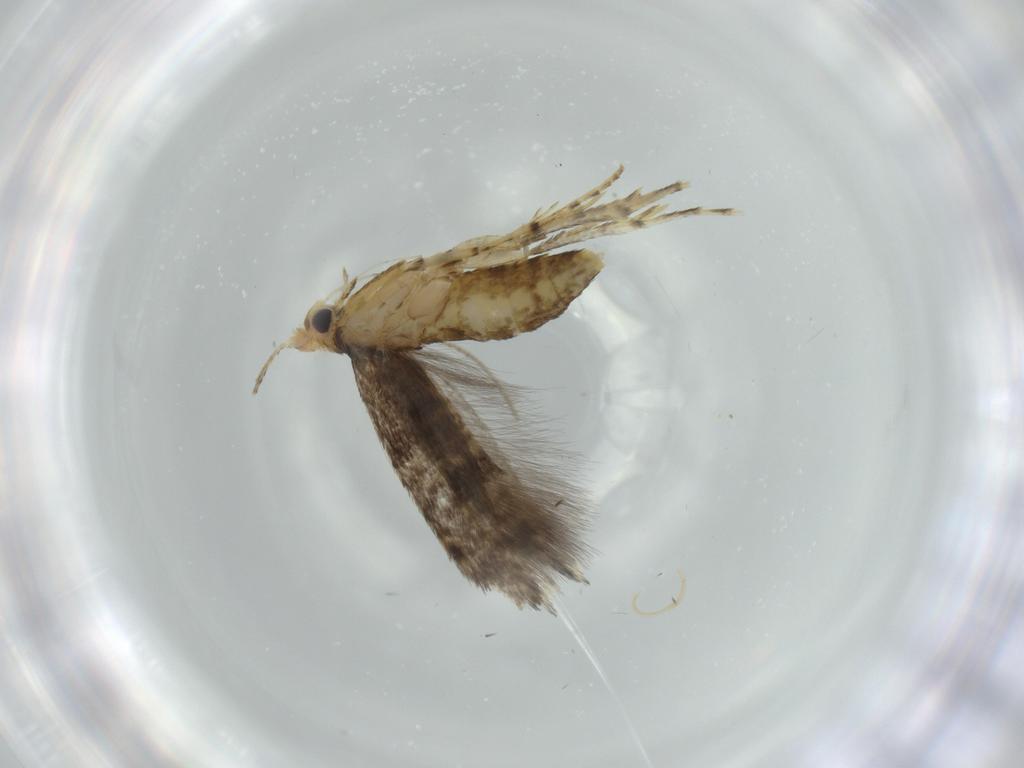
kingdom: Animalia
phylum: Arthropoda
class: Insecta
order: Lepidoptera
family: Argyresthiidae
